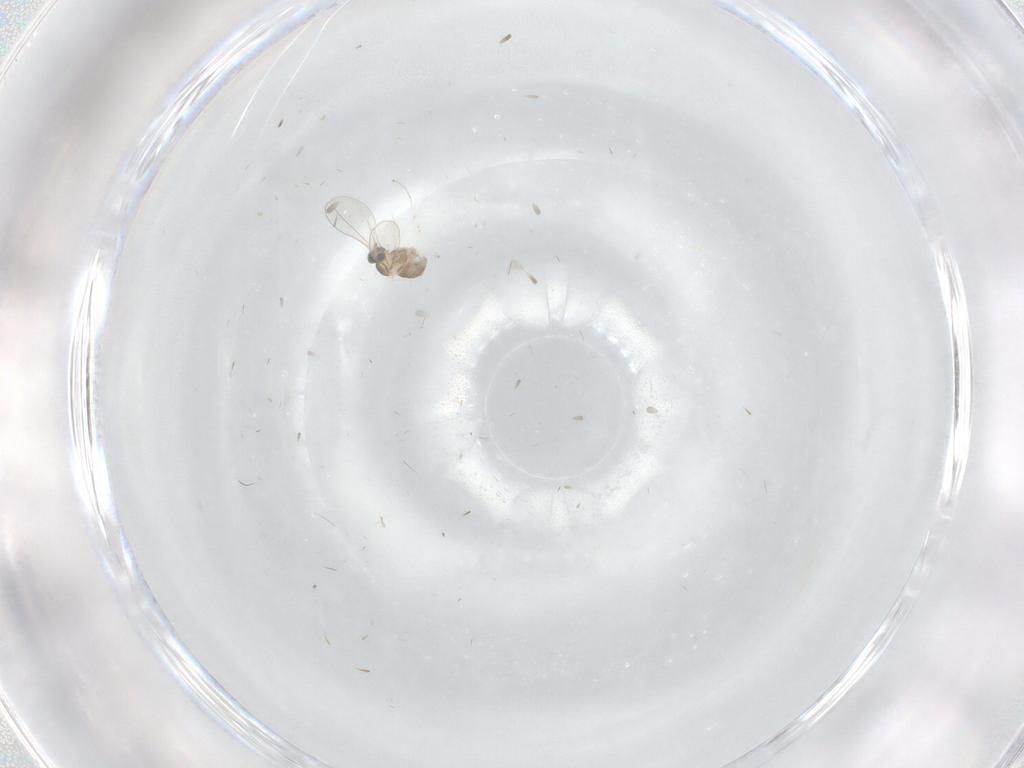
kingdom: Animalia
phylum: Arthropoda
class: Insecta
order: Diptera
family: Cecidomyiidae
